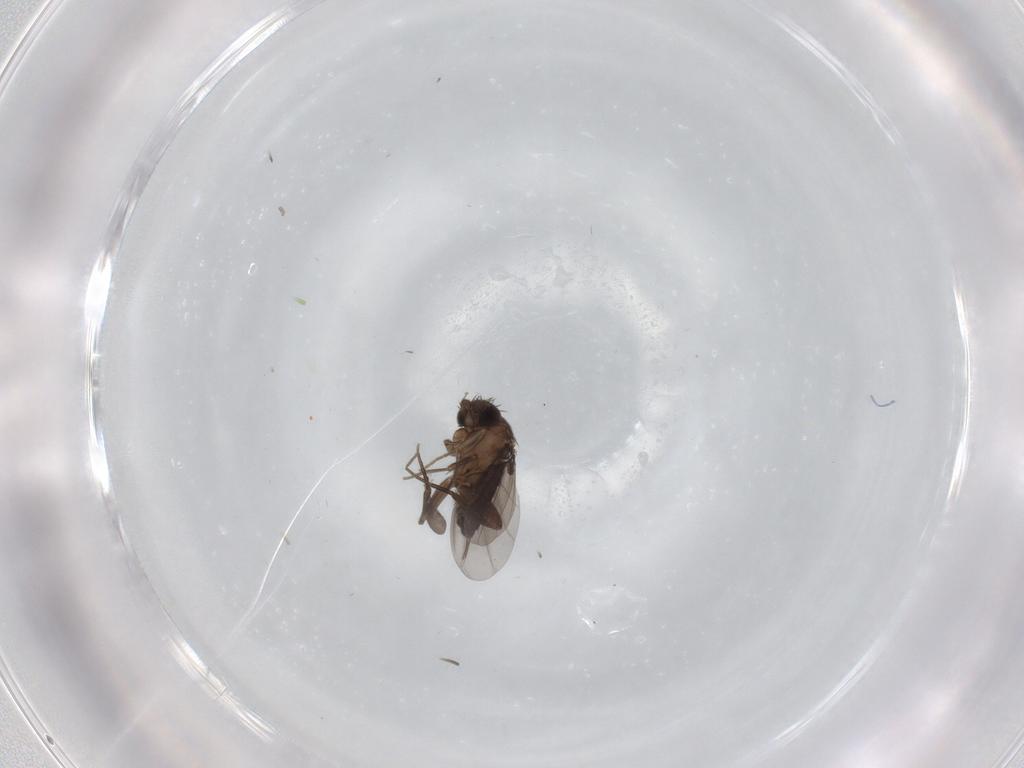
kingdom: Animalia
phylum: Arthropoda
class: Insecta
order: Diptera
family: Phoridae
